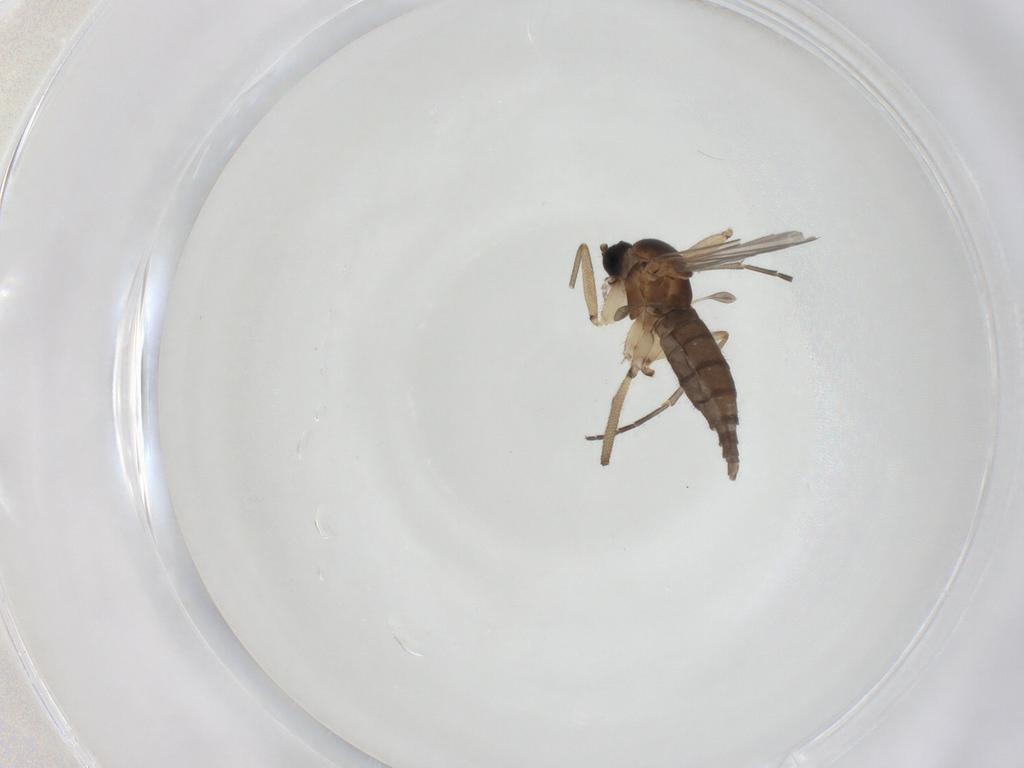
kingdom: Animalia
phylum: Arthropoda
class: Insecta
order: Diptera
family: Sciaridae
